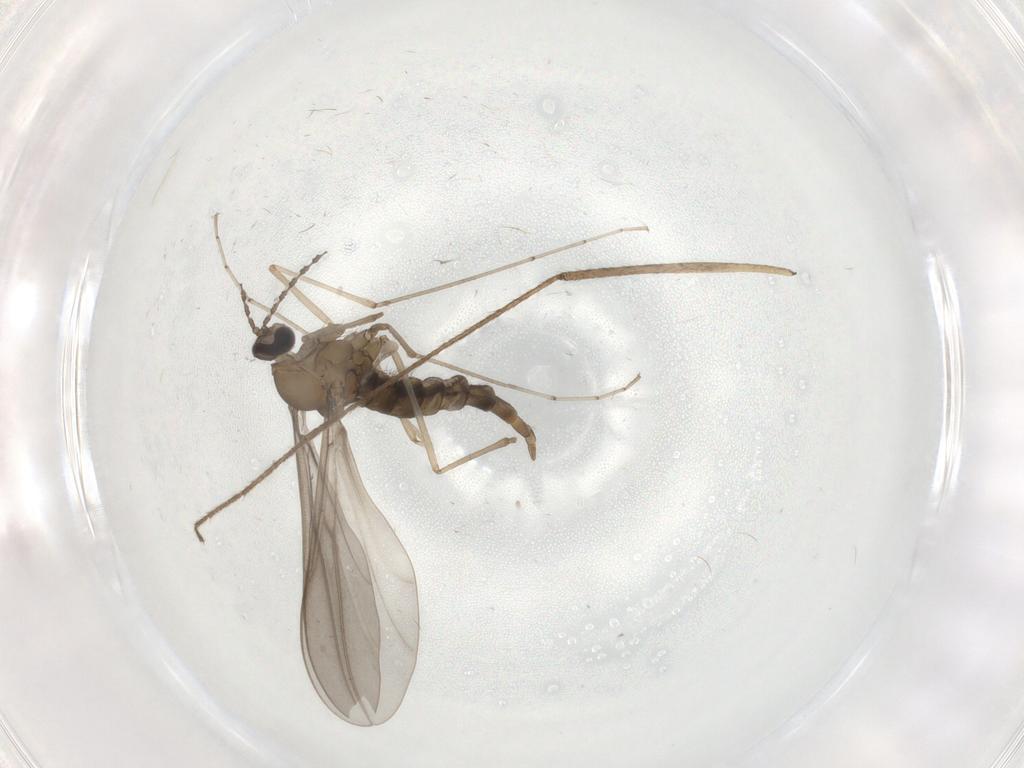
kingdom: Animalia
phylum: Arthropoda
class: Insecta
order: Diptera
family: Limoniidae
